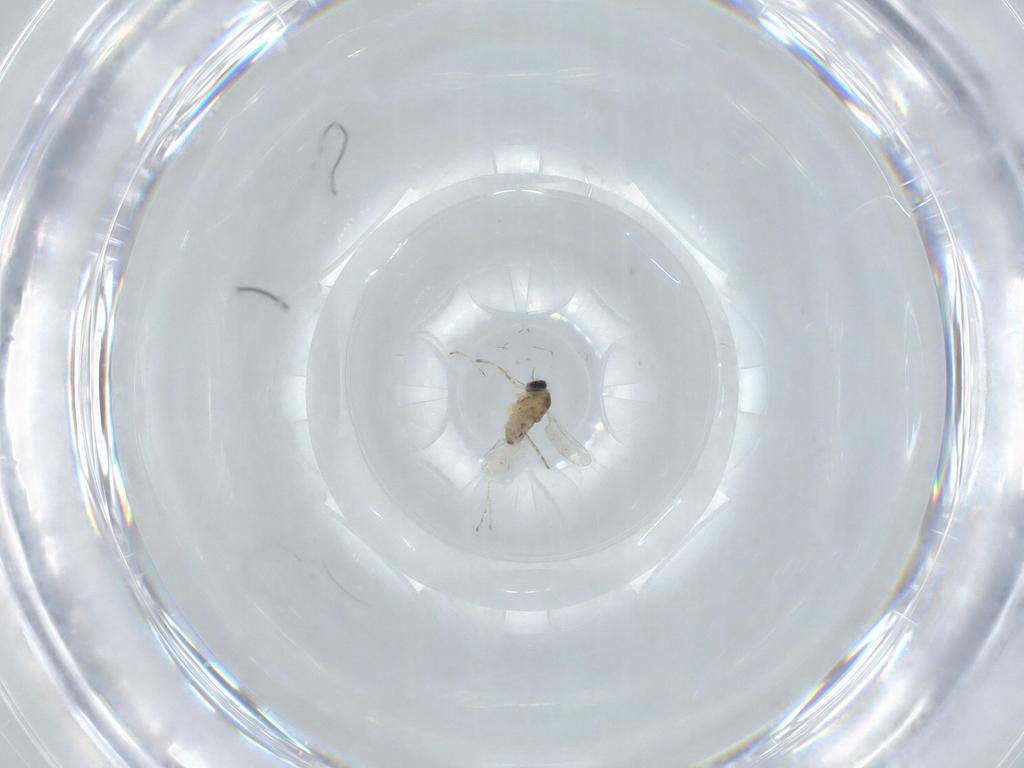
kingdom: Animalia
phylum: Arthropoda
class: Insecta
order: Diptera
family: Cecidomyiidae
